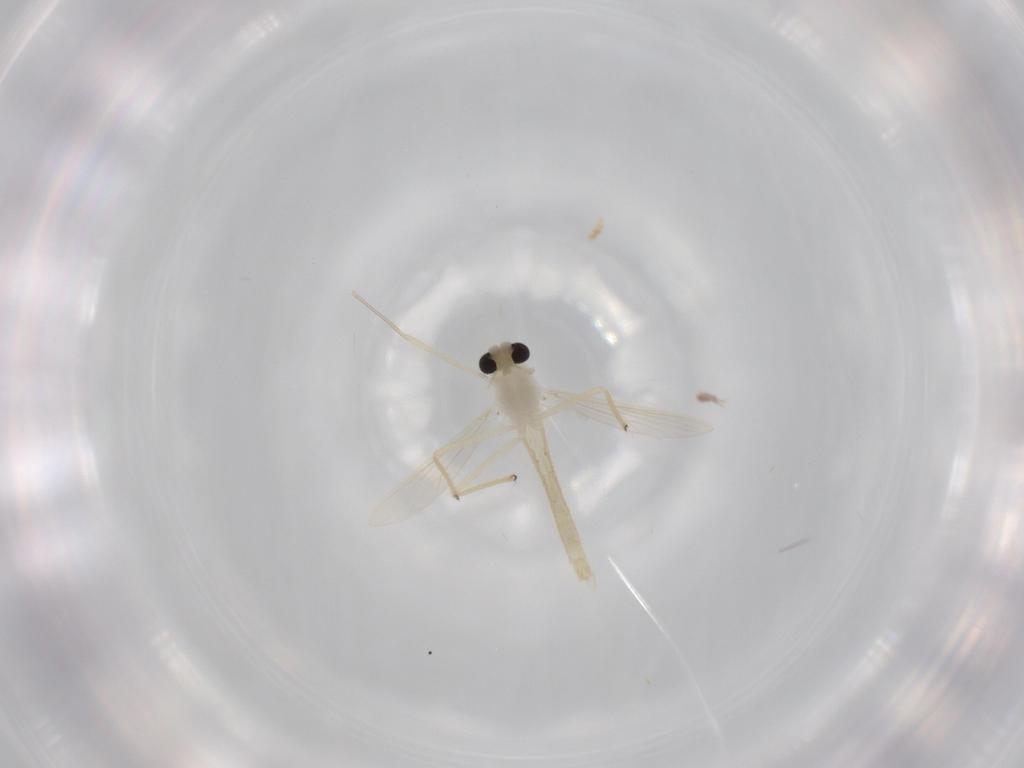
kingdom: Animalia
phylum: Arthropoda
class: Insecta
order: Diptera
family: Chironomidae
